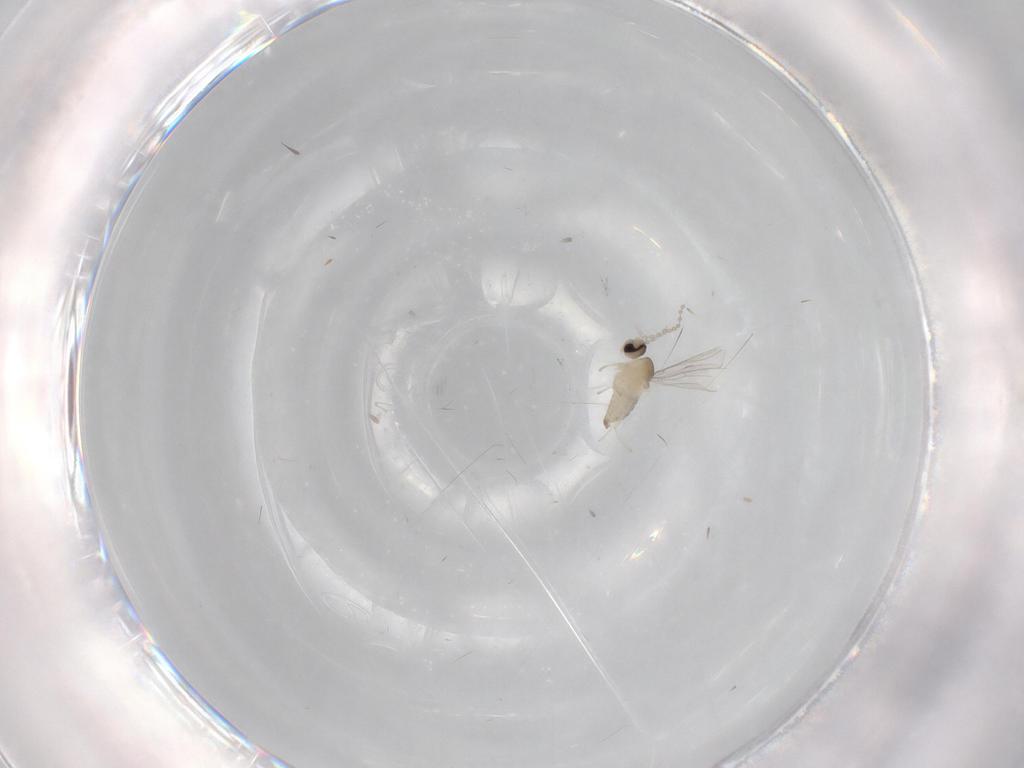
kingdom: Animalia
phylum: Arthropoda
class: Insecta
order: Diptera
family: Cecidomyiidae
